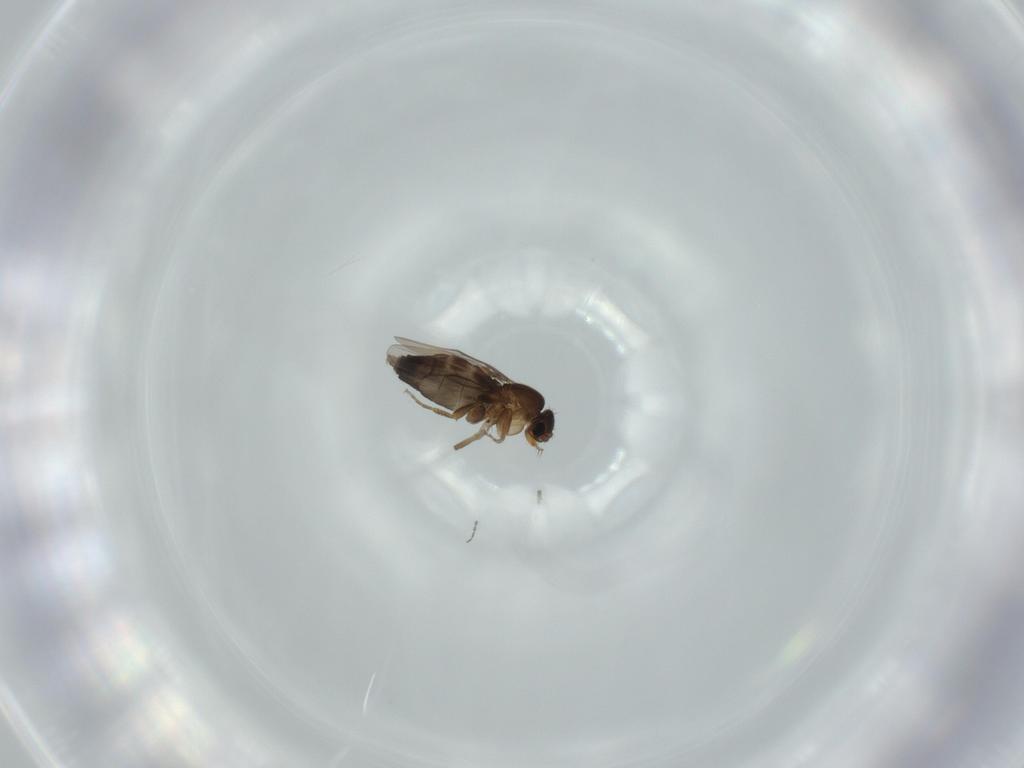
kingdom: Animalia
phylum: Arthropoda
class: Insecta
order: Diptera
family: Phoridae
